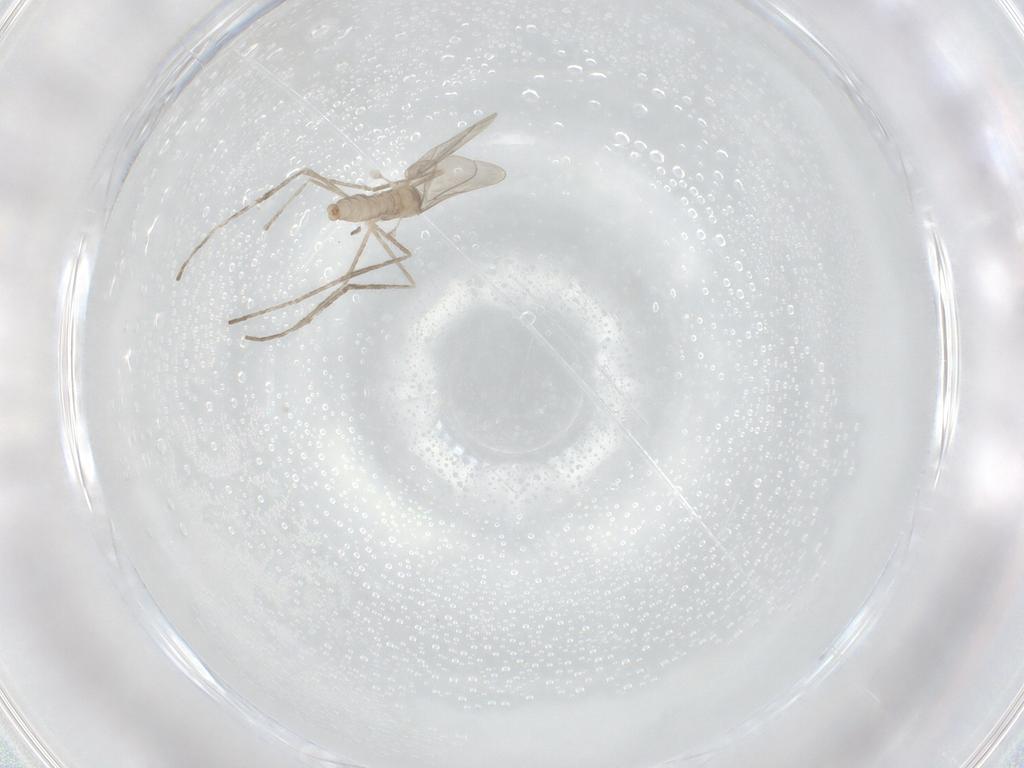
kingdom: Animalia
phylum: Arthropoda
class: Insecta
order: Diptera
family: Cecidomyiidae
